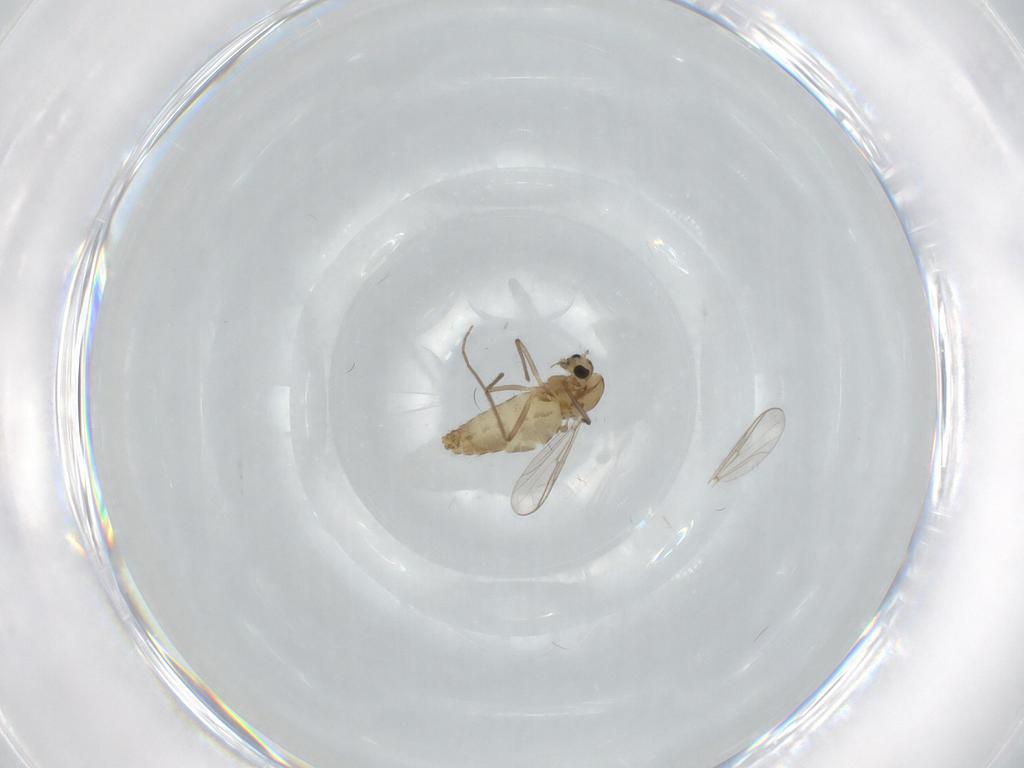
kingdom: Animalia
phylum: Arthropoda
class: Insecta
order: Diptera
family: Chironomidae
